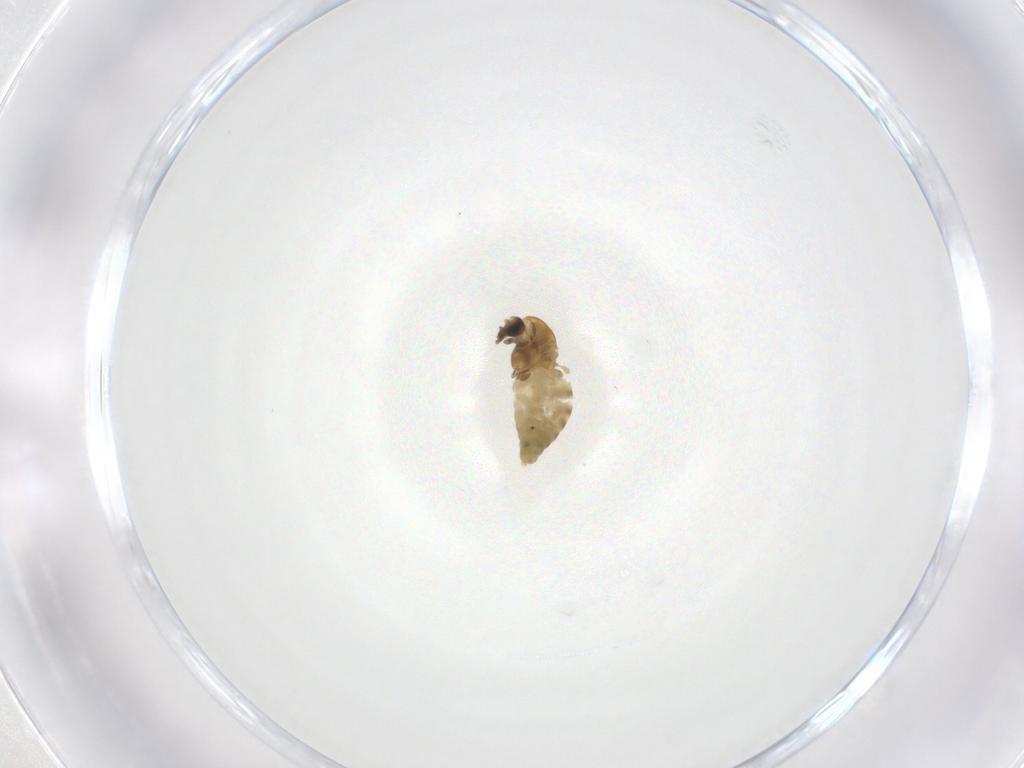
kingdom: Animalia
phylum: Arthropoda
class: Insecta
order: Diptera
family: Chironomidae
